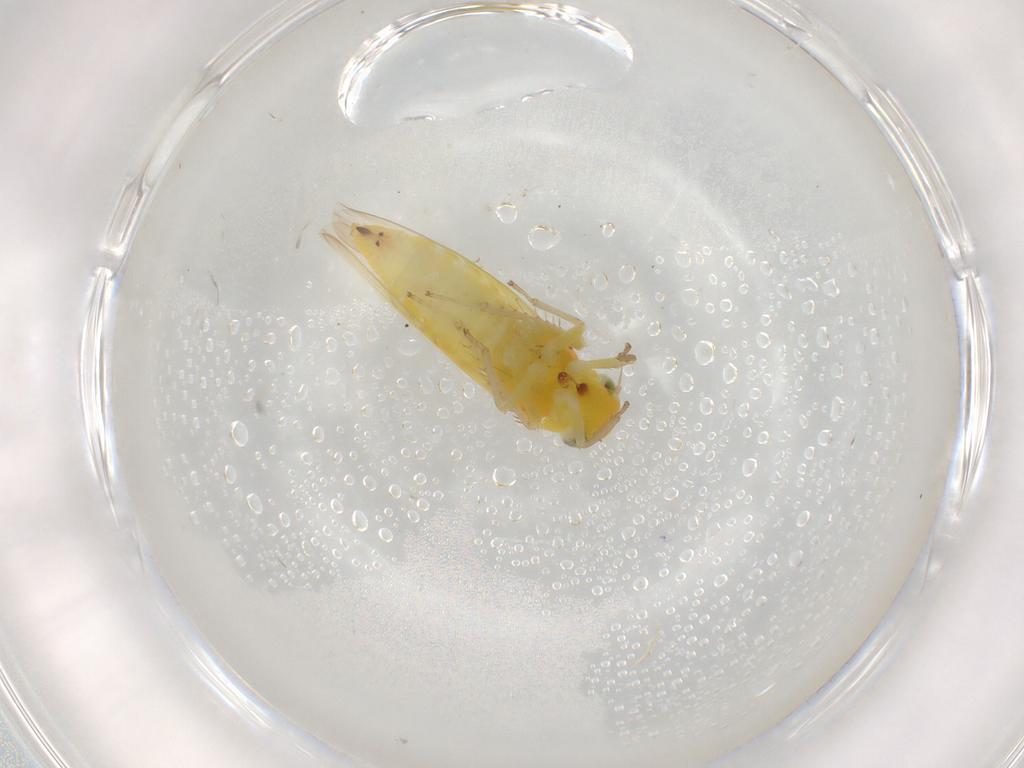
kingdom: Animalia
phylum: Arthropoda
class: Insecta
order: Hemiptera
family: Cicadellidae
